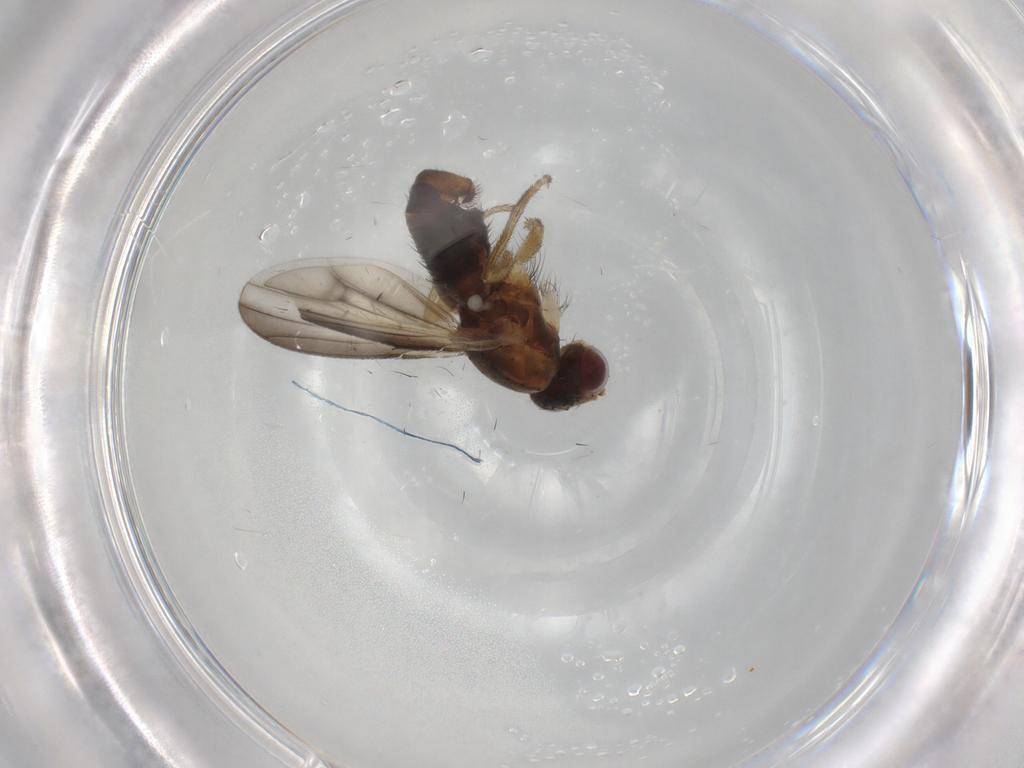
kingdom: Animalia
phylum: Arthropoda
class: Insecta
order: Diptera
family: Heleomyzidae
